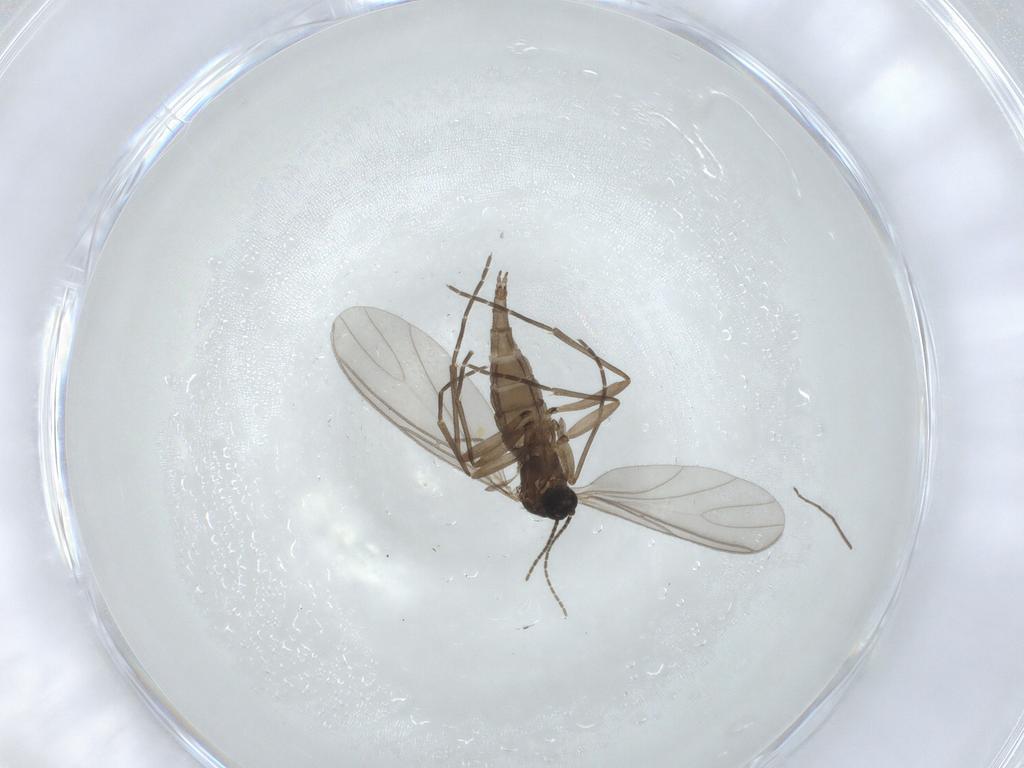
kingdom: Animalia
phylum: Arthropoda
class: Insecta
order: Diptera
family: Sciaridae
